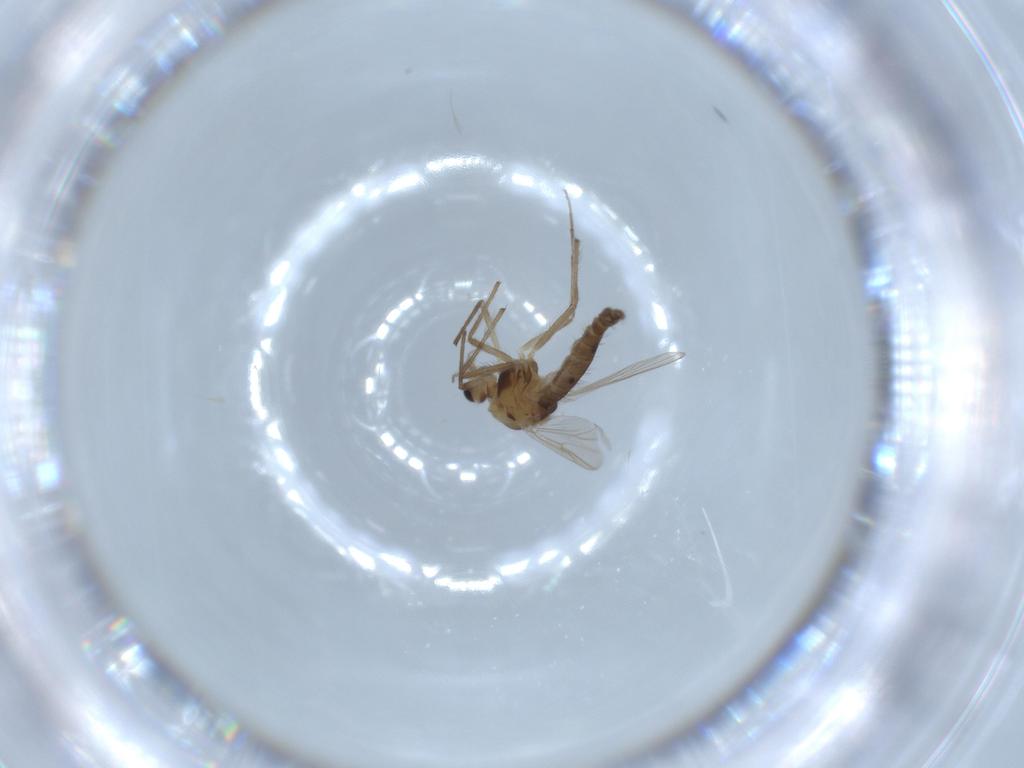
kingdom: Animalia
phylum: Arthropoda
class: Insecta
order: Diptera
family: Chironomidae
